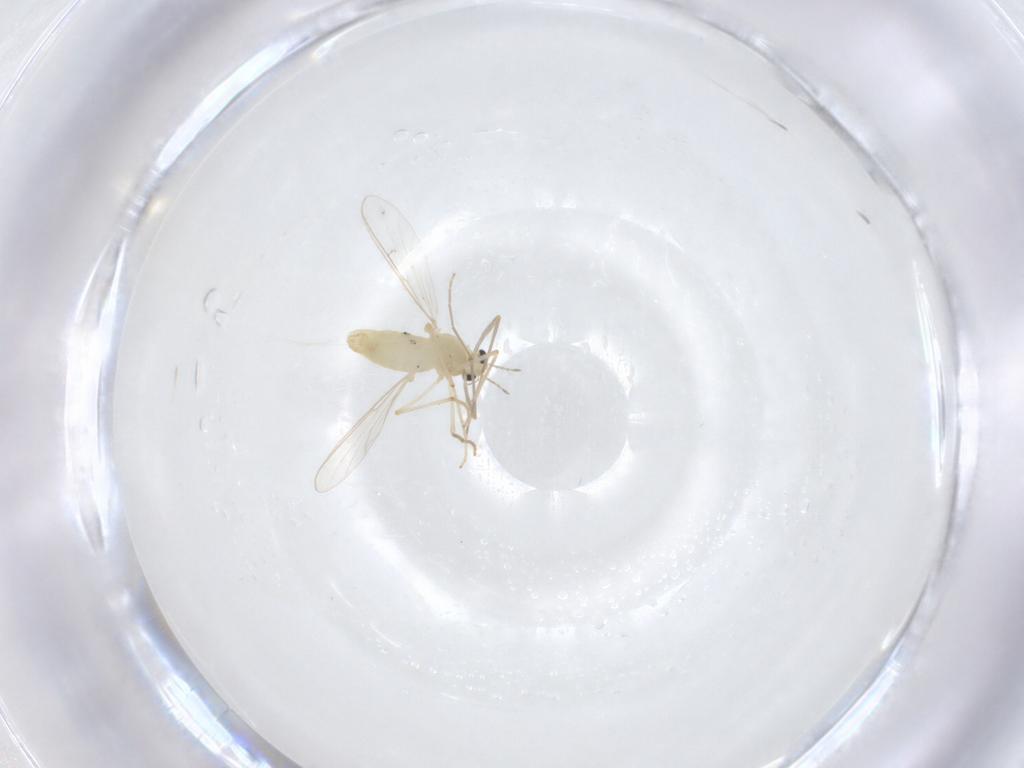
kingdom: Animalia
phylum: Arthropoda
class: Insecta
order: Diptera
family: Chironomidae
